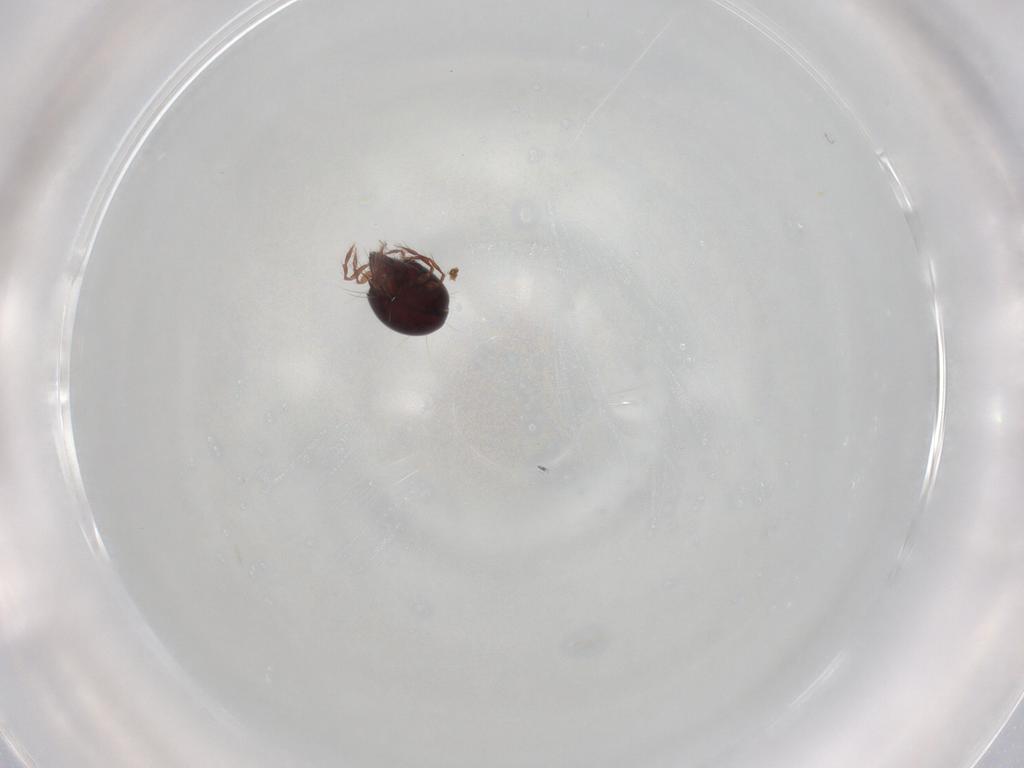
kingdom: Animalia
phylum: Arthropoda
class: Arachnida
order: Sarcoptiformes
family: Ceratoppiidae
